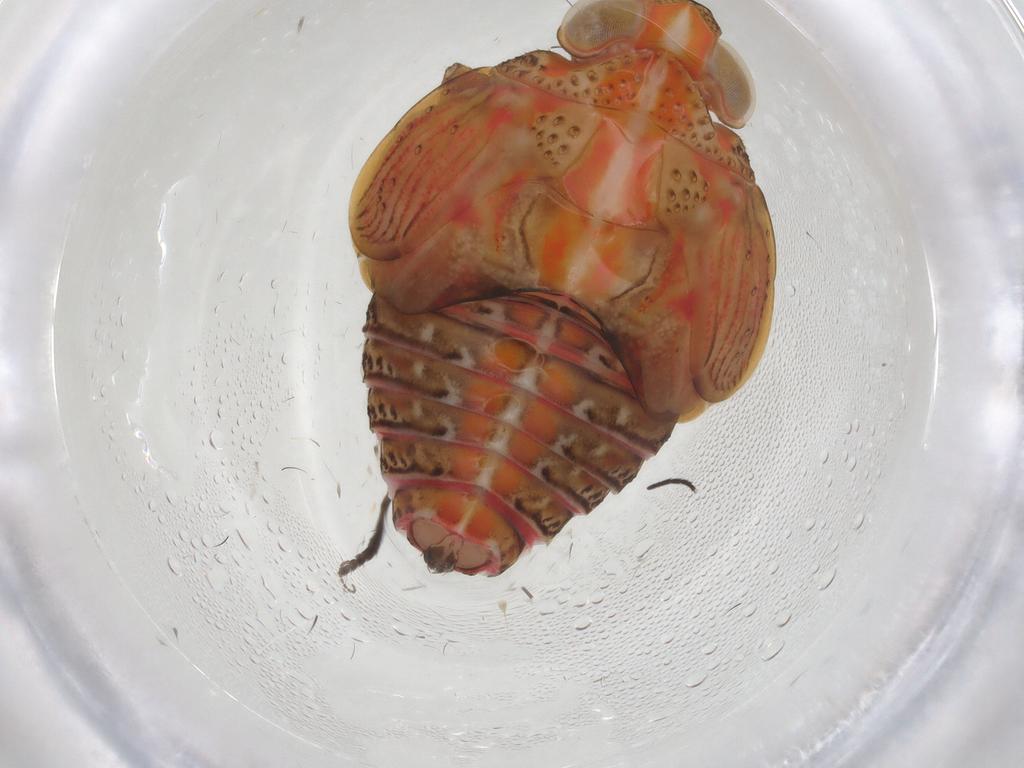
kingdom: Animalia
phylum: Arthropoda
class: Insecta
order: Hemiptera
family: Issidae
